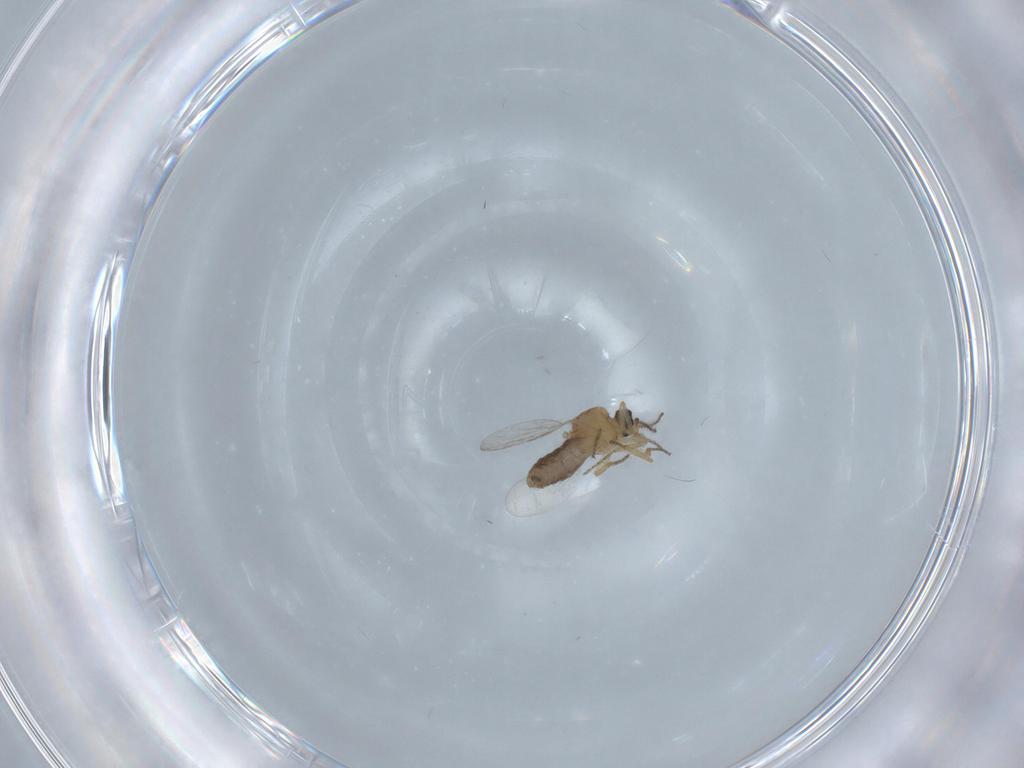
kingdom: Animalia
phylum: Arthropoda
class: Insecta
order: Diptera
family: Ceratopogonidae
